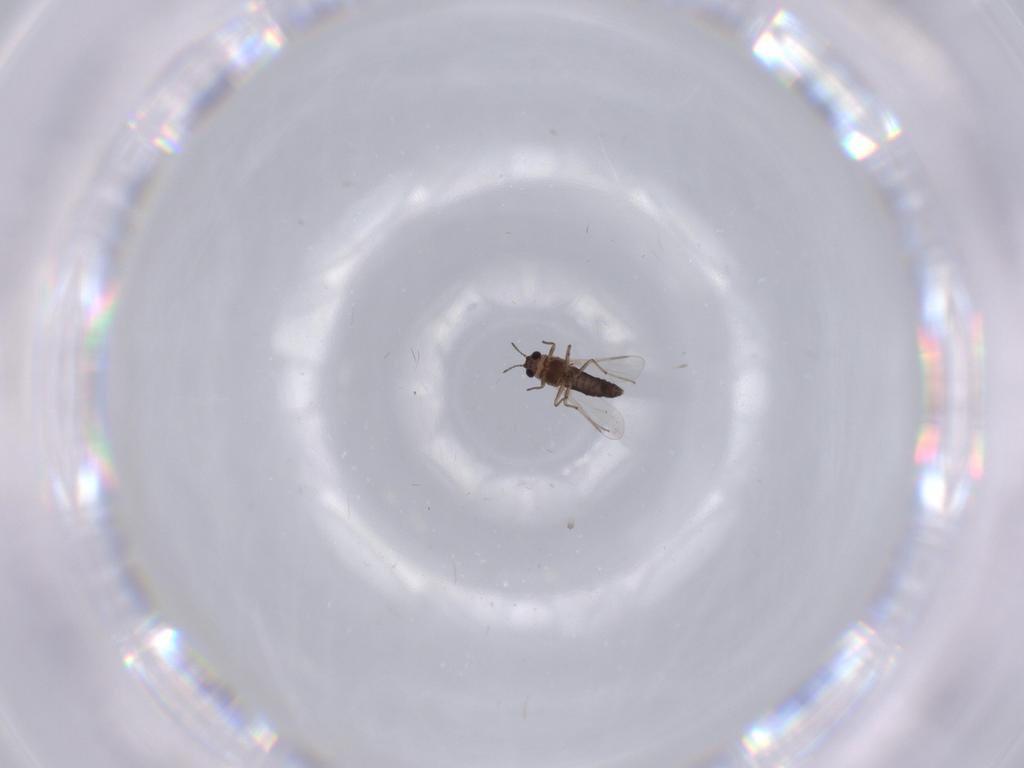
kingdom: Animalia
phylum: Arthropoda
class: Insecta
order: Diptera
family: Chironomidae
